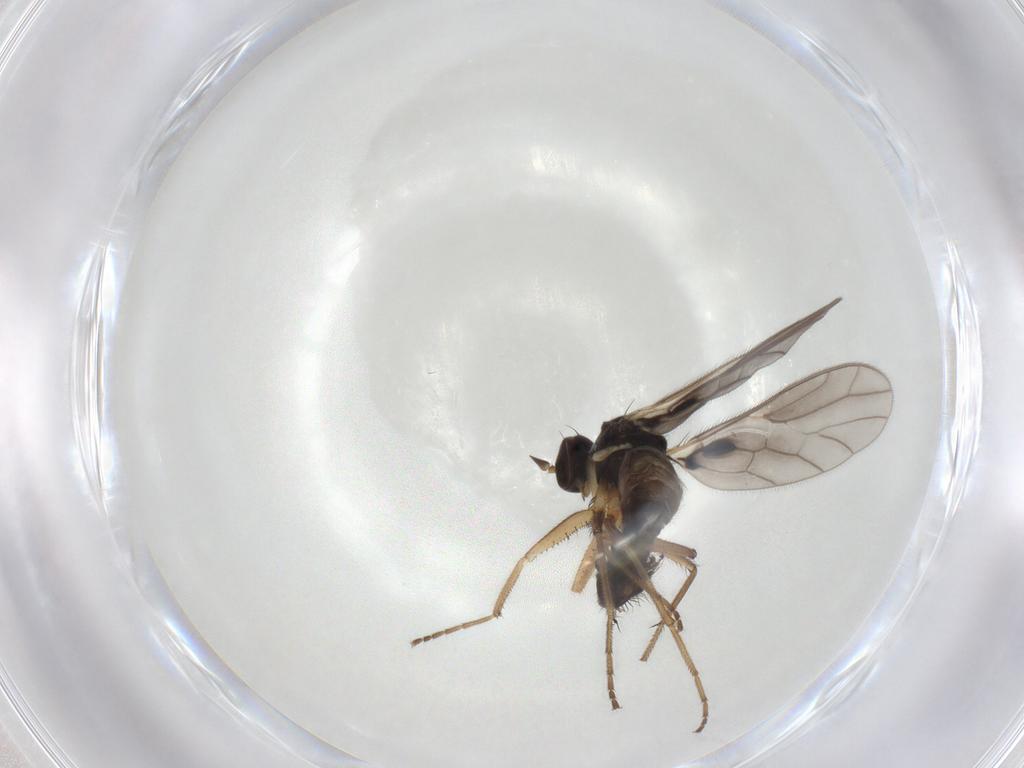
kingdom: Animalia
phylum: Arthropoda
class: Insecta
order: Diptera
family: Empididae
